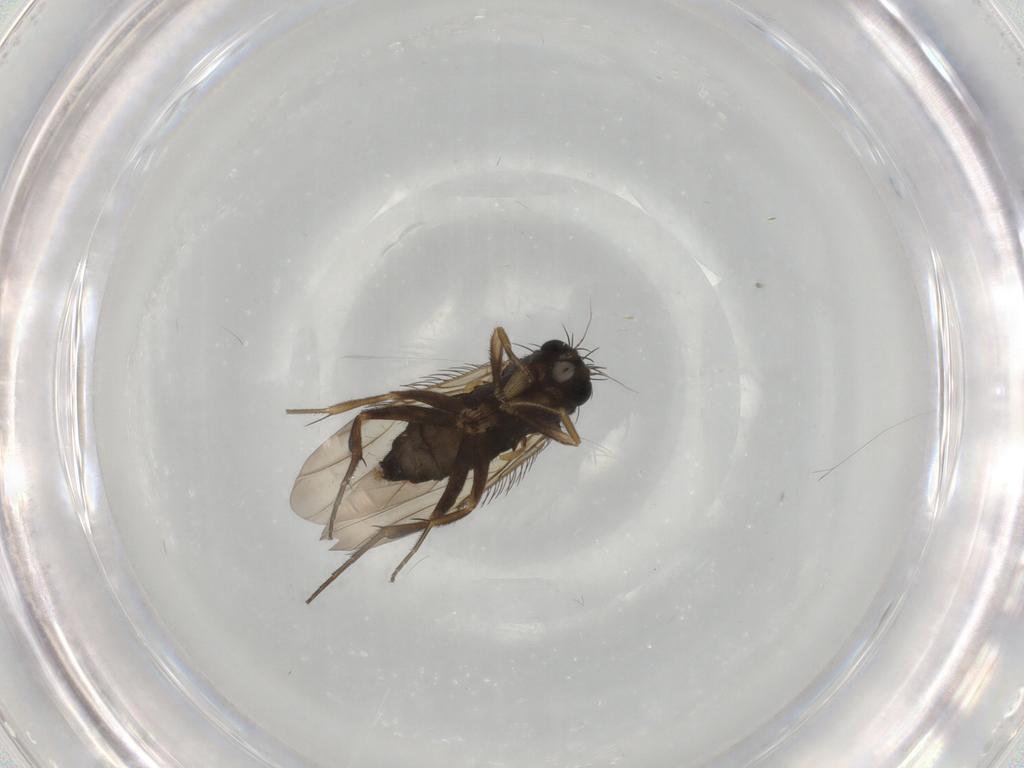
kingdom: Animalia
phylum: Arthropoda
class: Insecta
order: Diptera
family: Phoridae
